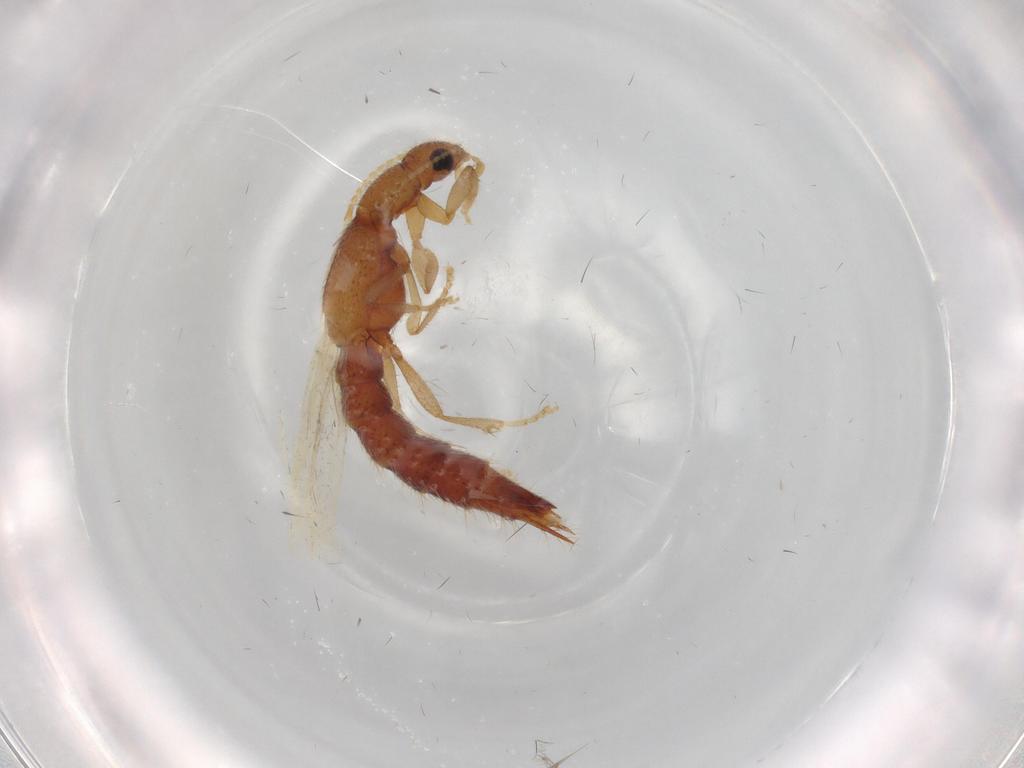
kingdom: Animalia
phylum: Arthropoda
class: Insecta
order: Coleoptera
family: Staphylinidae
